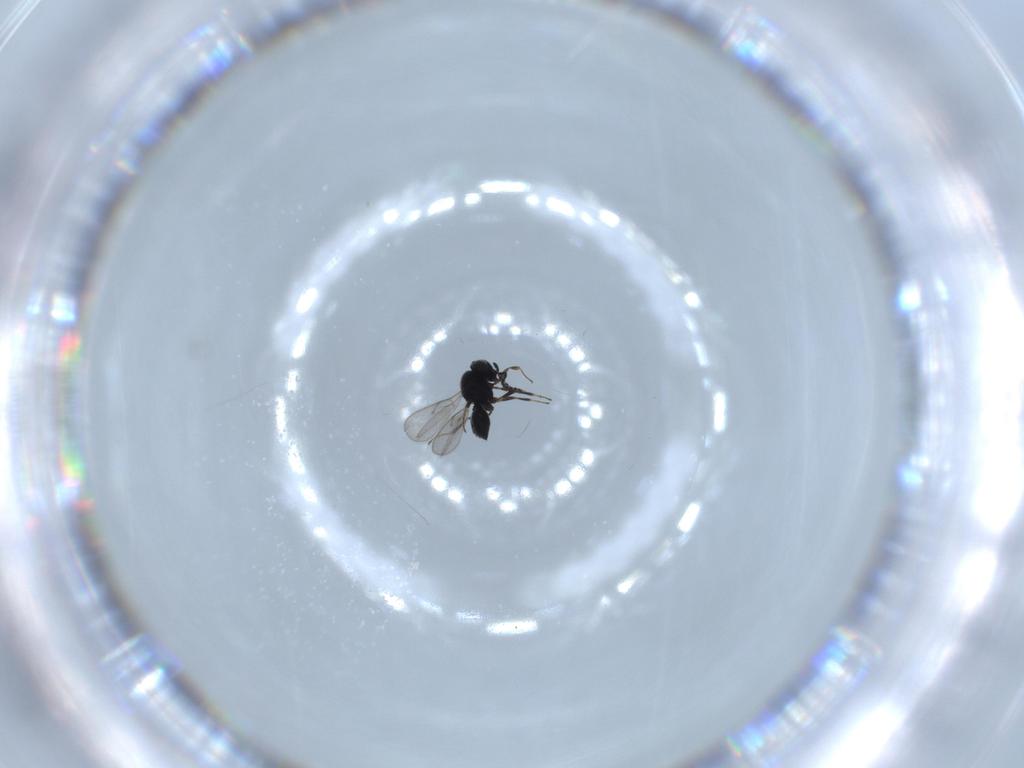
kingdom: Animalia
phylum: Arthropoda
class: Insecta
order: Hymenoptera
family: Scelionidae
